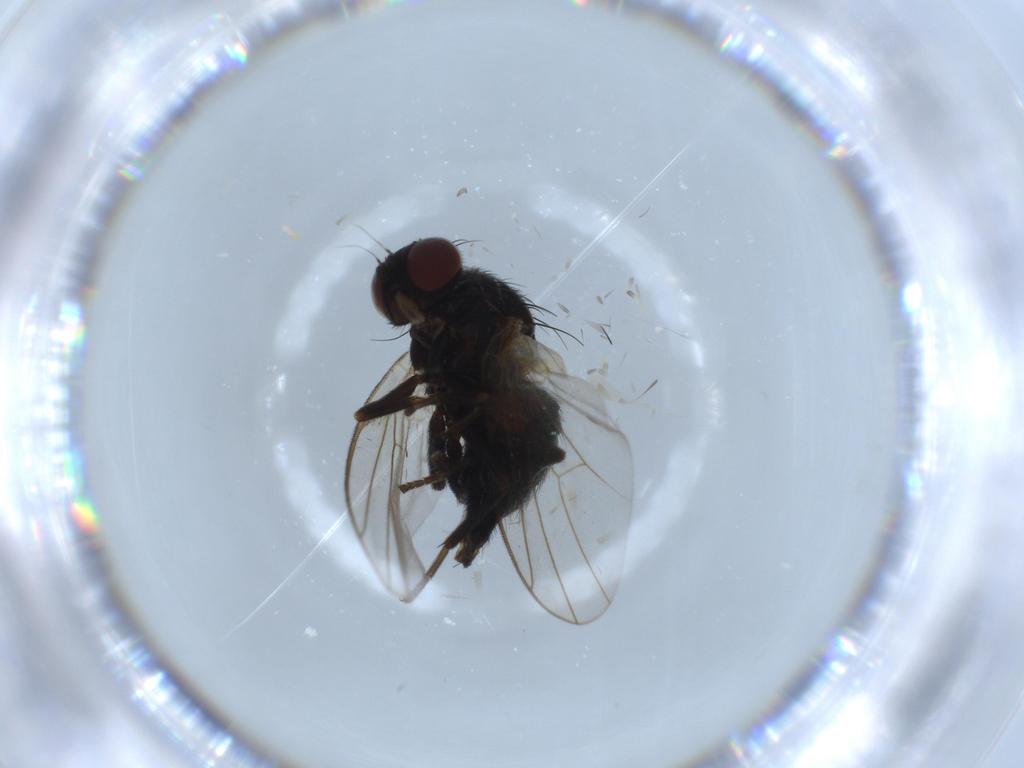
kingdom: Animalia
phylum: Arthropoda
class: Insecta
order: Diptera
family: Agromyzidae
